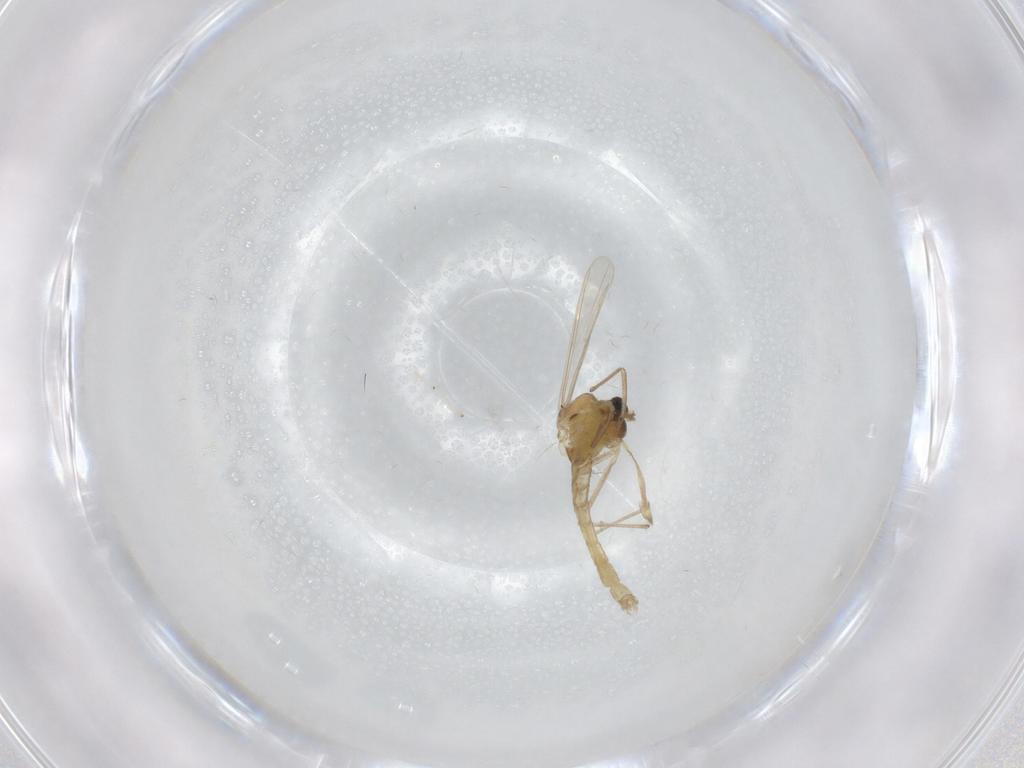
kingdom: Animalia
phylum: Arthropoda
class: Insecta
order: Diptera
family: Chironomidae
